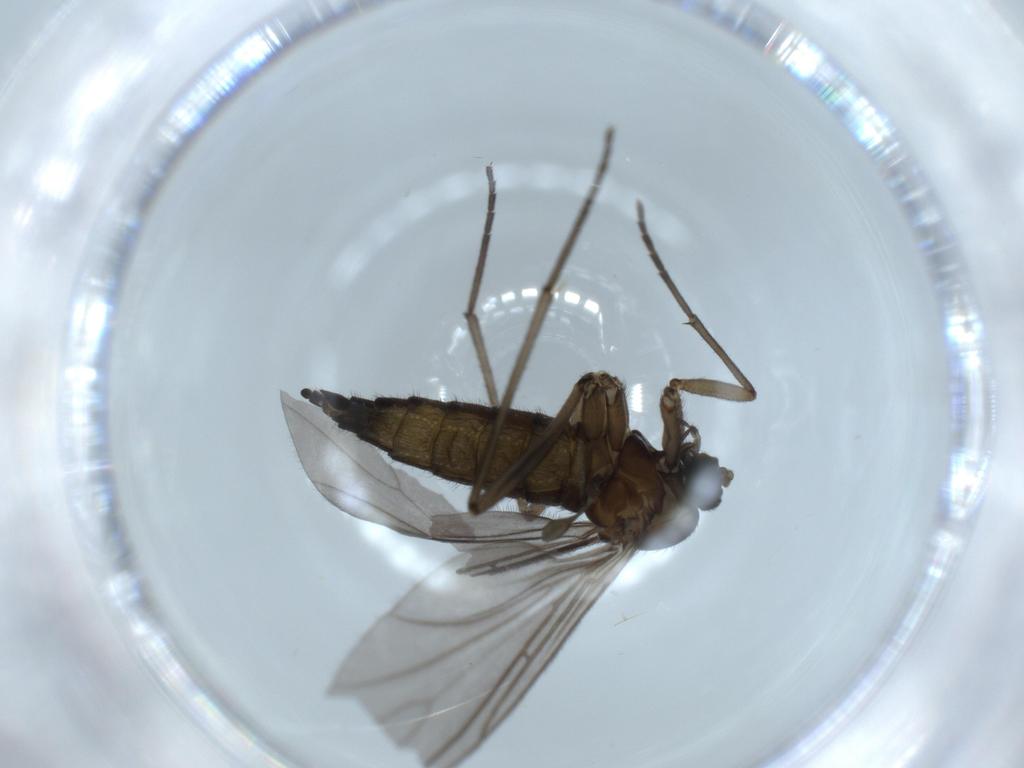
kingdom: Animalia
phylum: Arthropoda
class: Insecta
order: Diptera
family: Sciaridae
